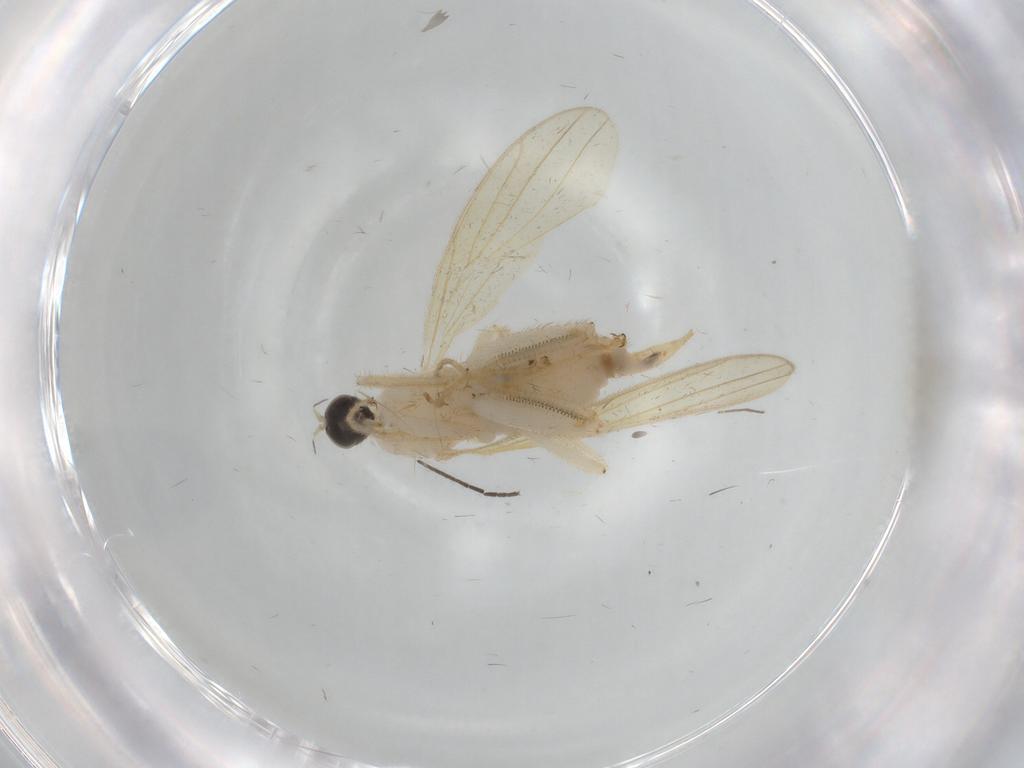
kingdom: Animalia
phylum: Arthropoda
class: Insecta
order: Diptera
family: Hybotidae
